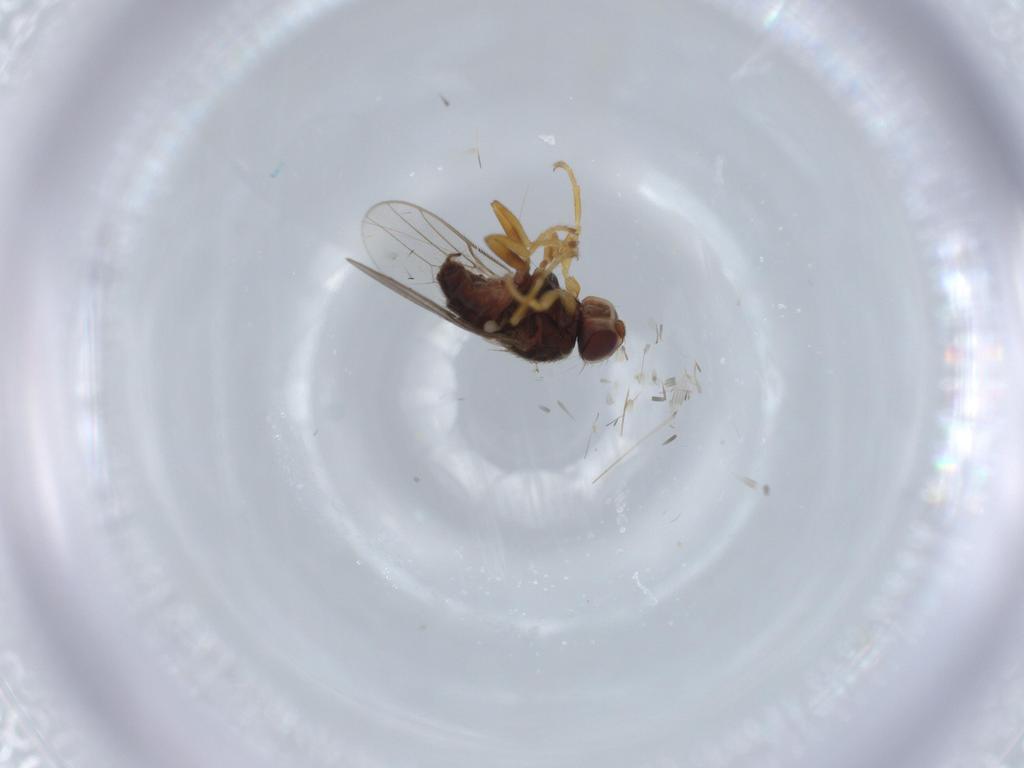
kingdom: Animalia
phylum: Arthropoda
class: Insecta
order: Diptera
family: Chloropidae
